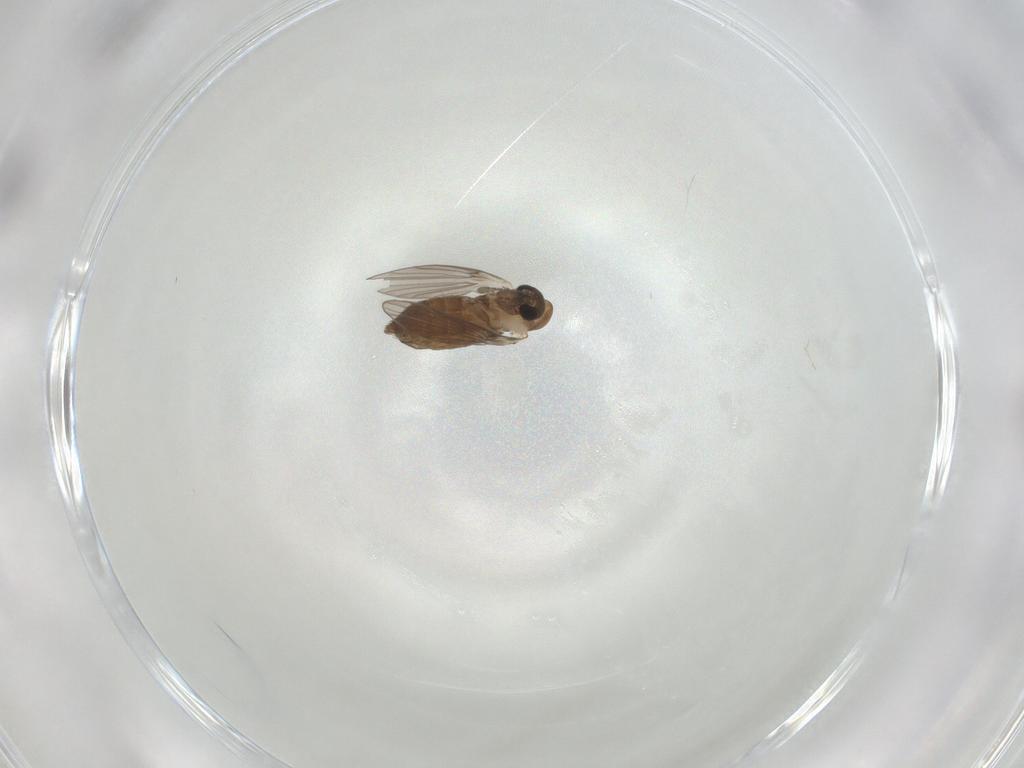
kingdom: Animalia
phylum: Arthropoda
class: Insecta
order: Diptera
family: Psychodidae
